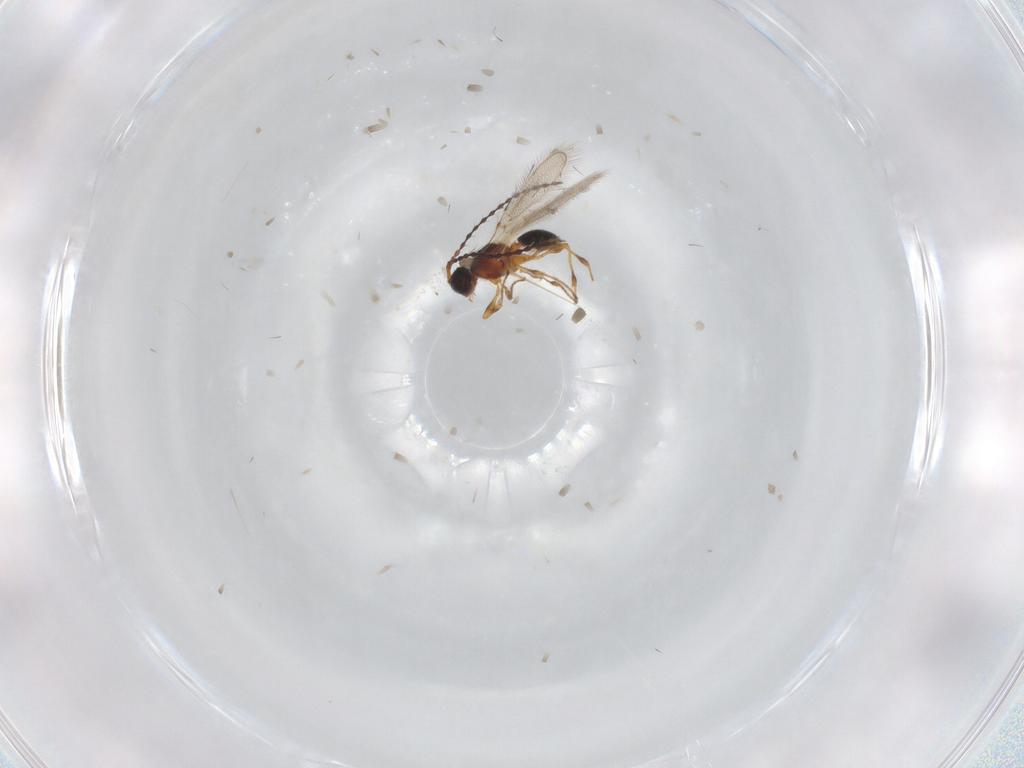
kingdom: Animalia
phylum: Arthropoda
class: Insecta
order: Hymenoptera
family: Diapriidae
